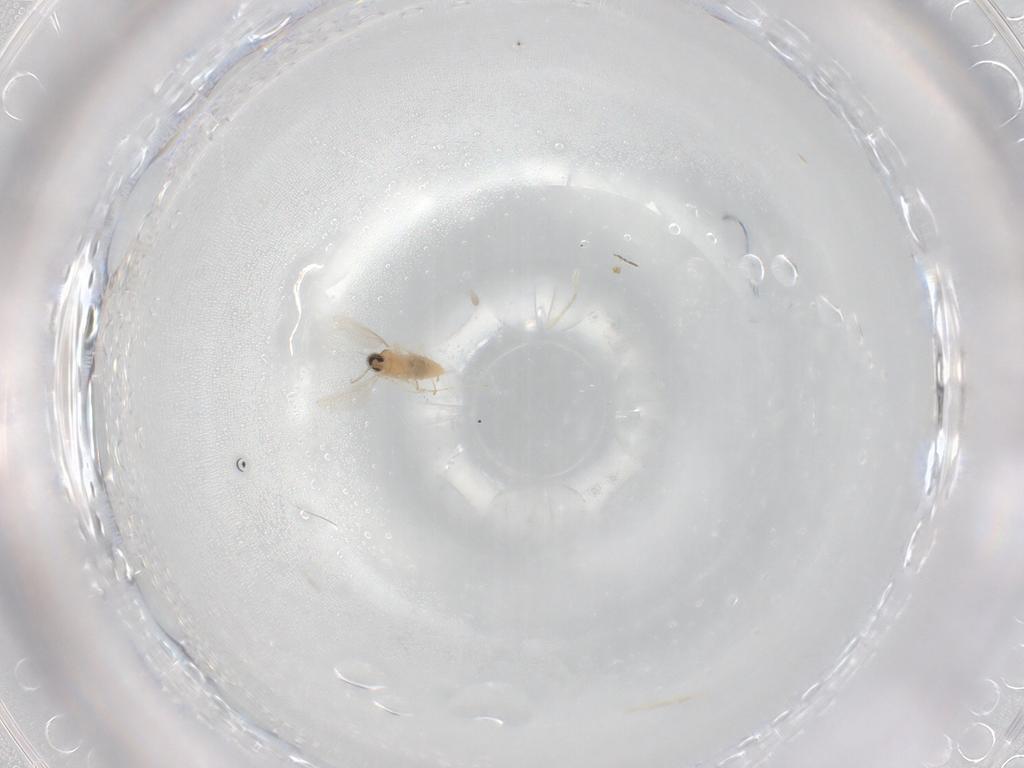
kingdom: Animalia
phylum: Arthropoda
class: Insecta
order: Diptera
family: Cecidomyiidae
